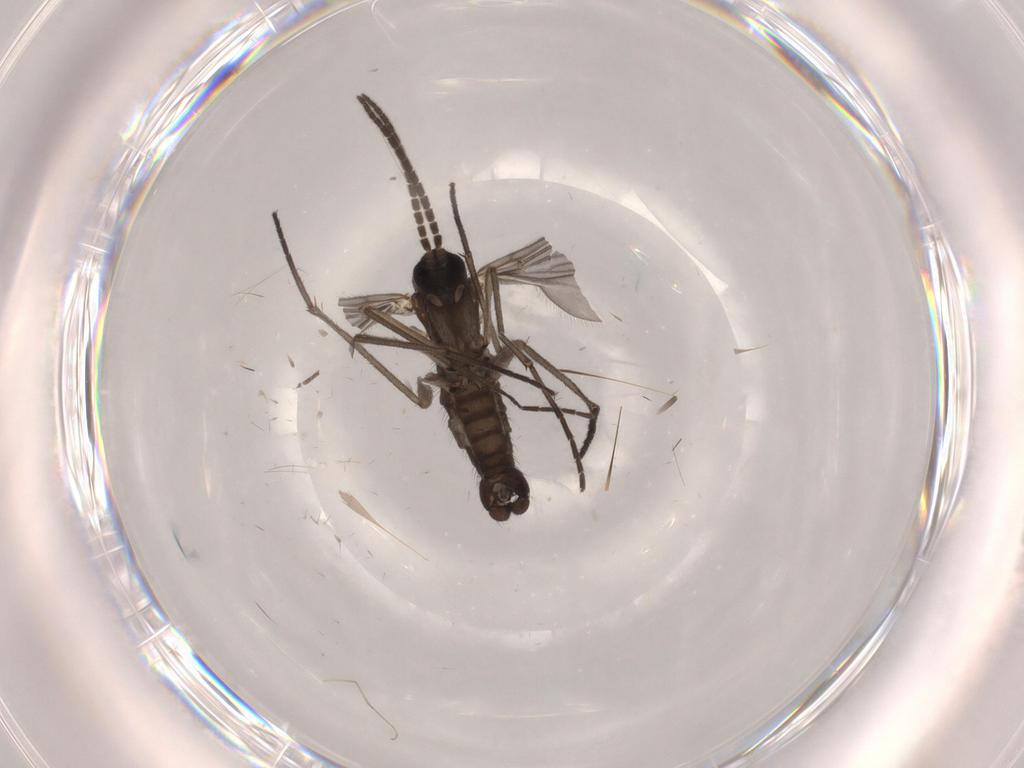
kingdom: Animalia
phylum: Arthropoda
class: Insecta
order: Diptera
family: Sciaridae
